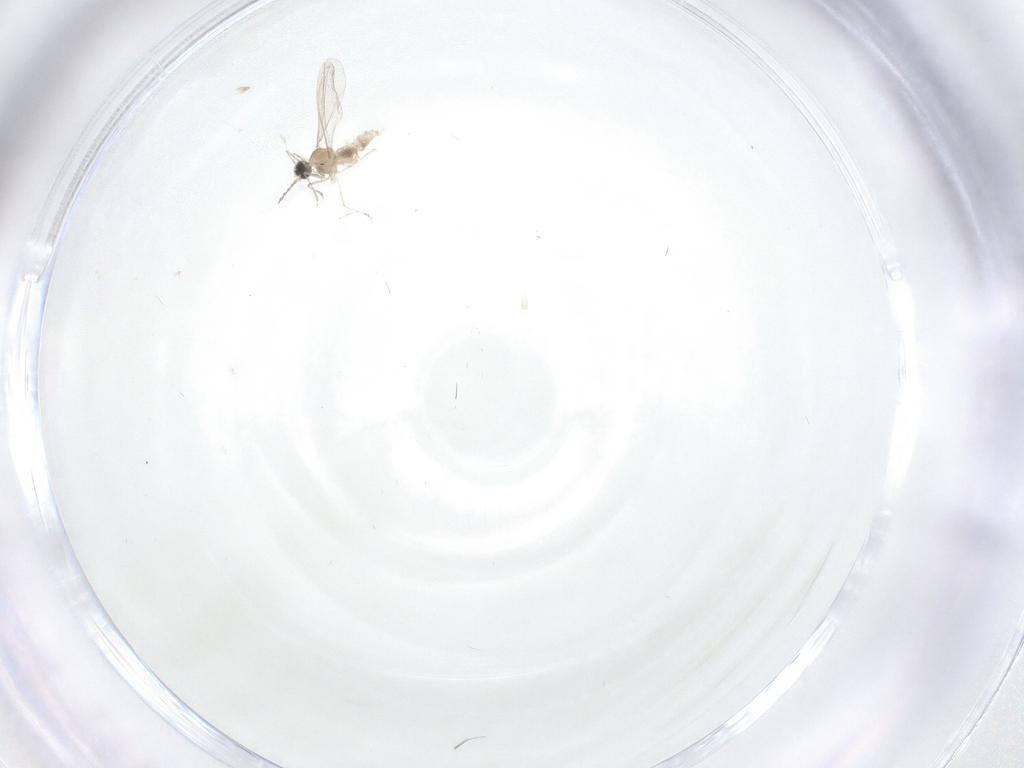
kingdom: Animalia
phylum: Arthropoda
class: Insecta
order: Diptera
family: Cecidomyiidae
